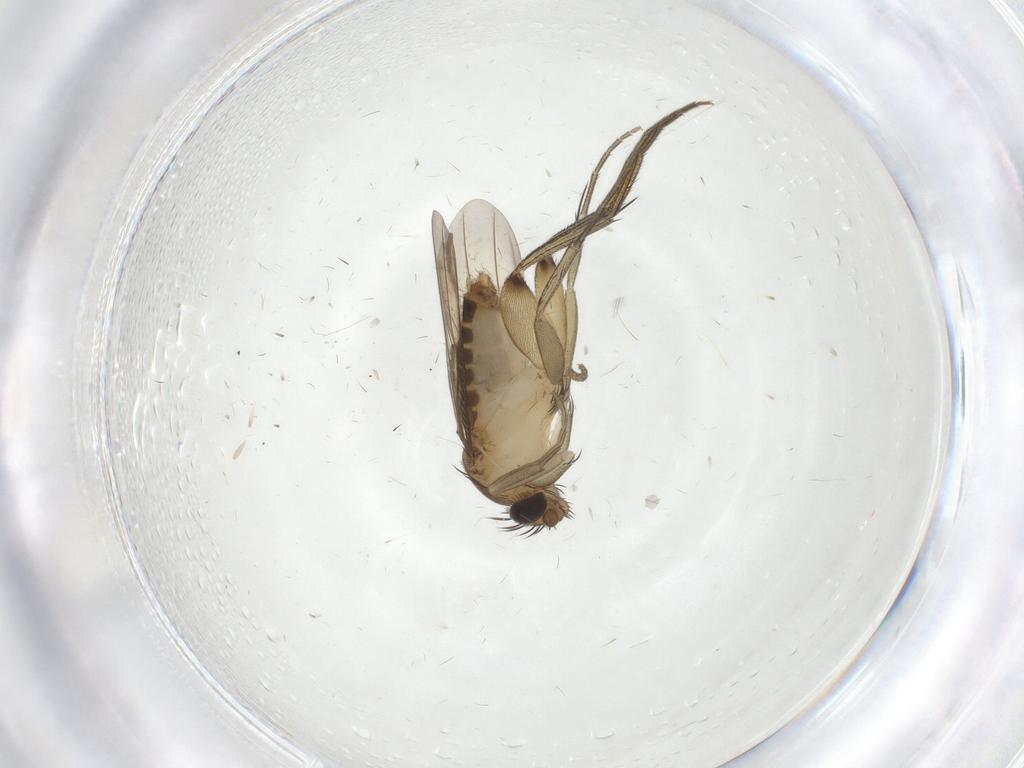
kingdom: Animalia
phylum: Arthropoda
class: Insecta
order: Diptera
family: Phoridae
